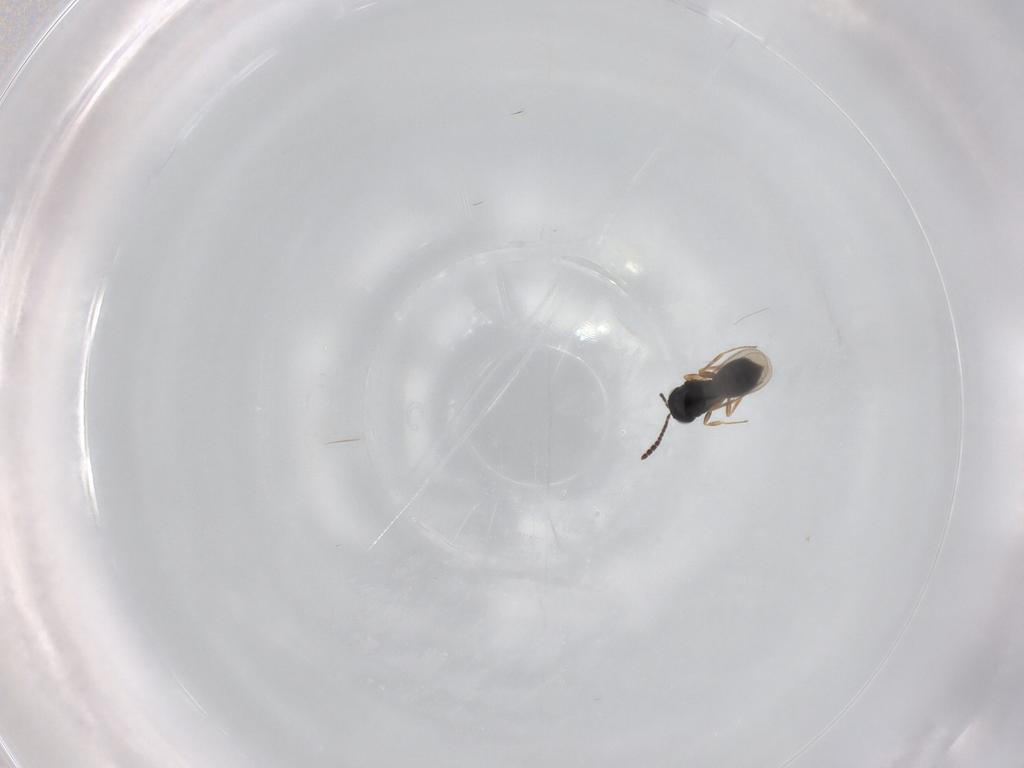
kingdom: Animalia
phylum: Arthropoda
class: Insecta
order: Hymenoptera
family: Scelionidae
